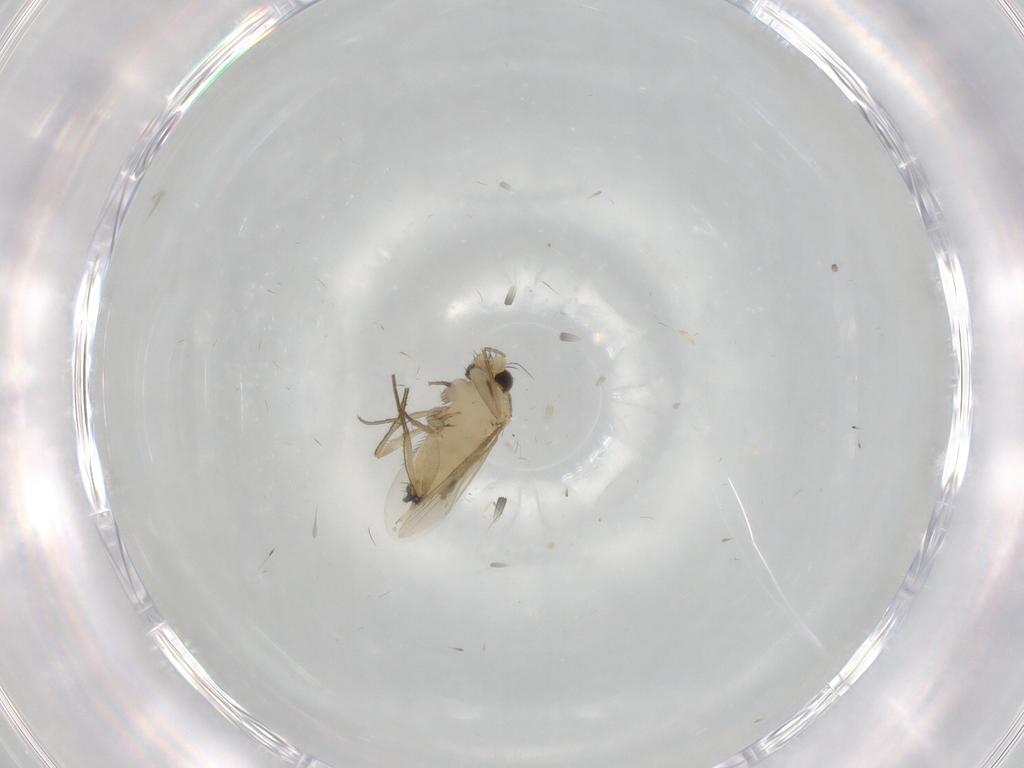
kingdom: Animalia
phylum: Arthropoda
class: Insecta
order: Diptera
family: Phoridae
